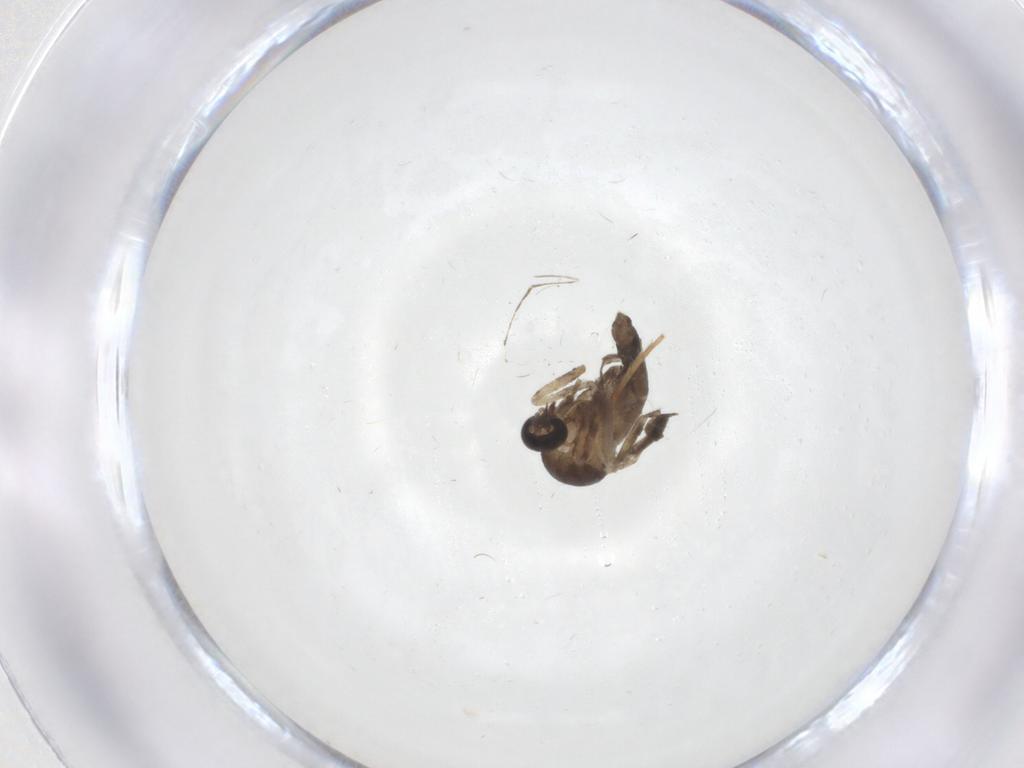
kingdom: Animalia
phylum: Arthropoda
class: Insecta
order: Diptera
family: Ceratopogonidae
